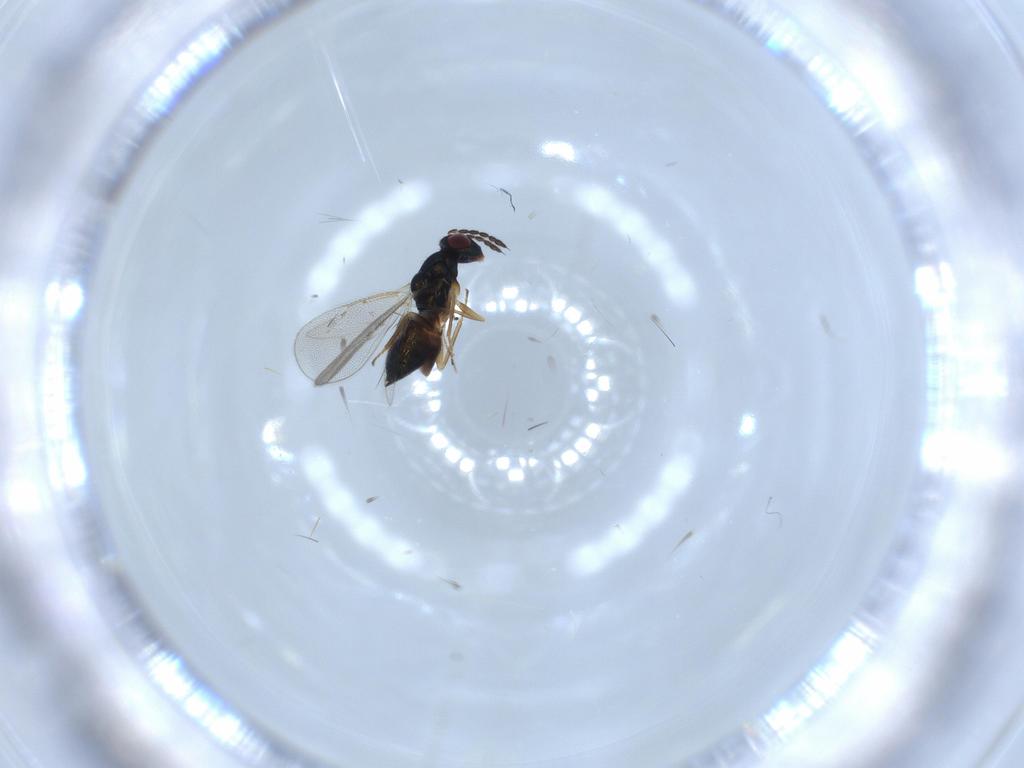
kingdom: Animalia
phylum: Arthropoda
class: Insecta
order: Hymenoptera
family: Eulophidae
